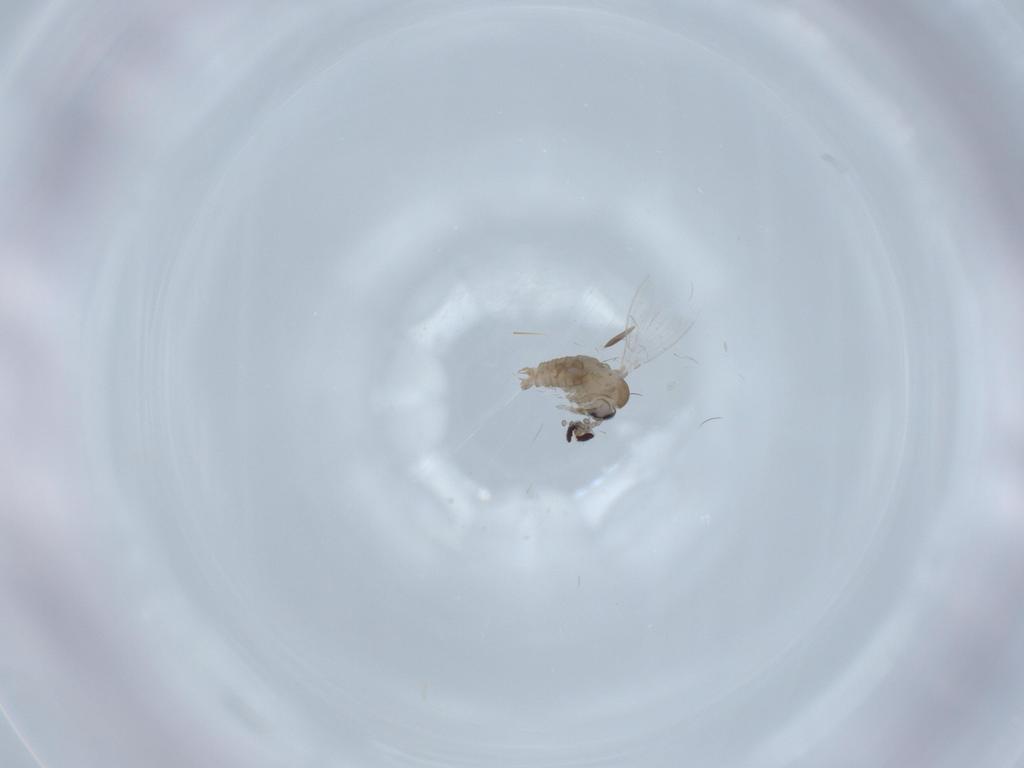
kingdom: Animalia
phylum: Arthropoda
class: Insecta
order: Diptera
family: Psychodidae
